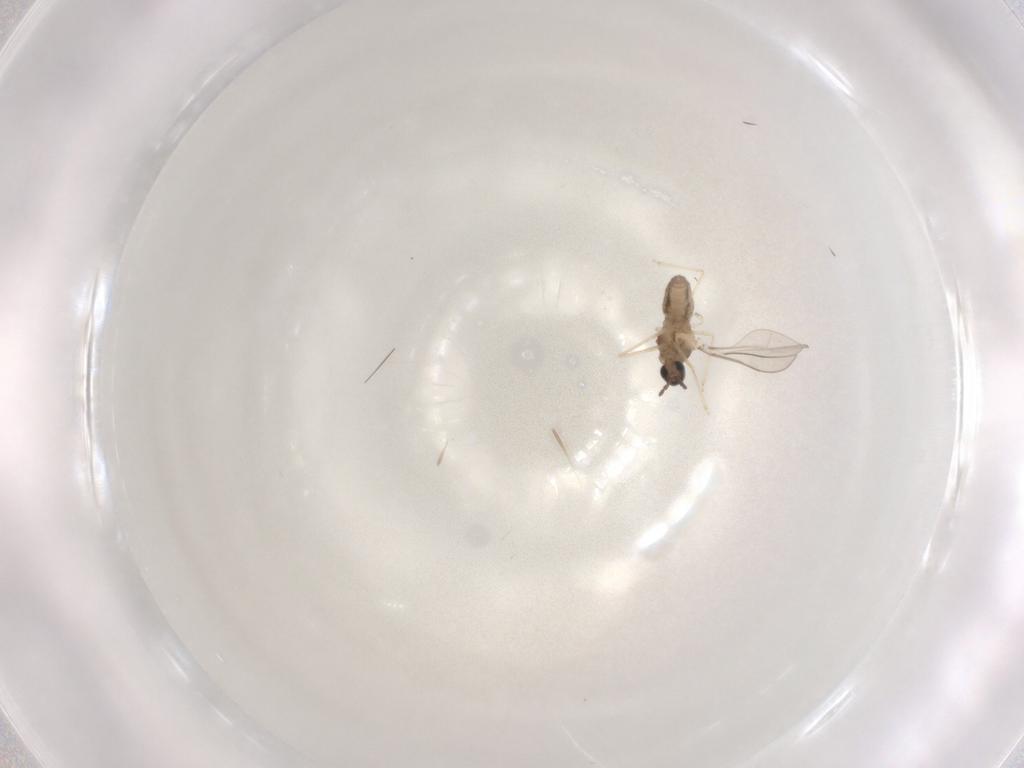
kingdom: Animalia
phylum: Arthropoda
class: Insecta
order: Diptera
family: Cecidomyiidae
